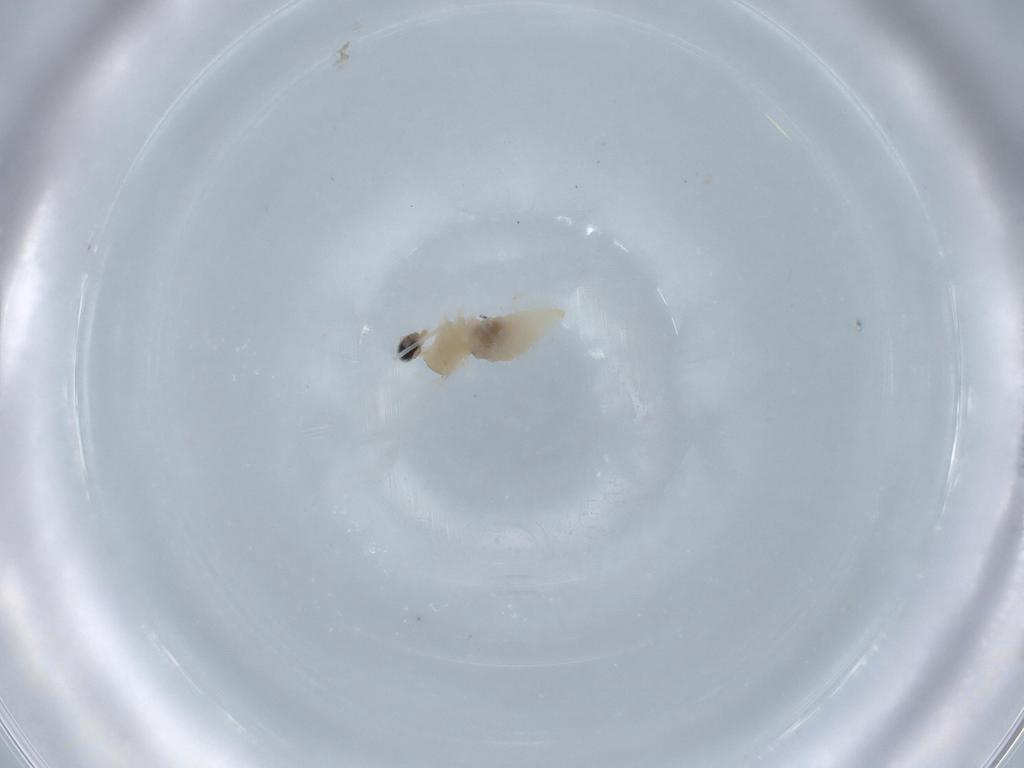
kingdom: Animalia
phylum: Arthropoda
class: Insecta
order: Diptera
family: Cecidomyiidae
